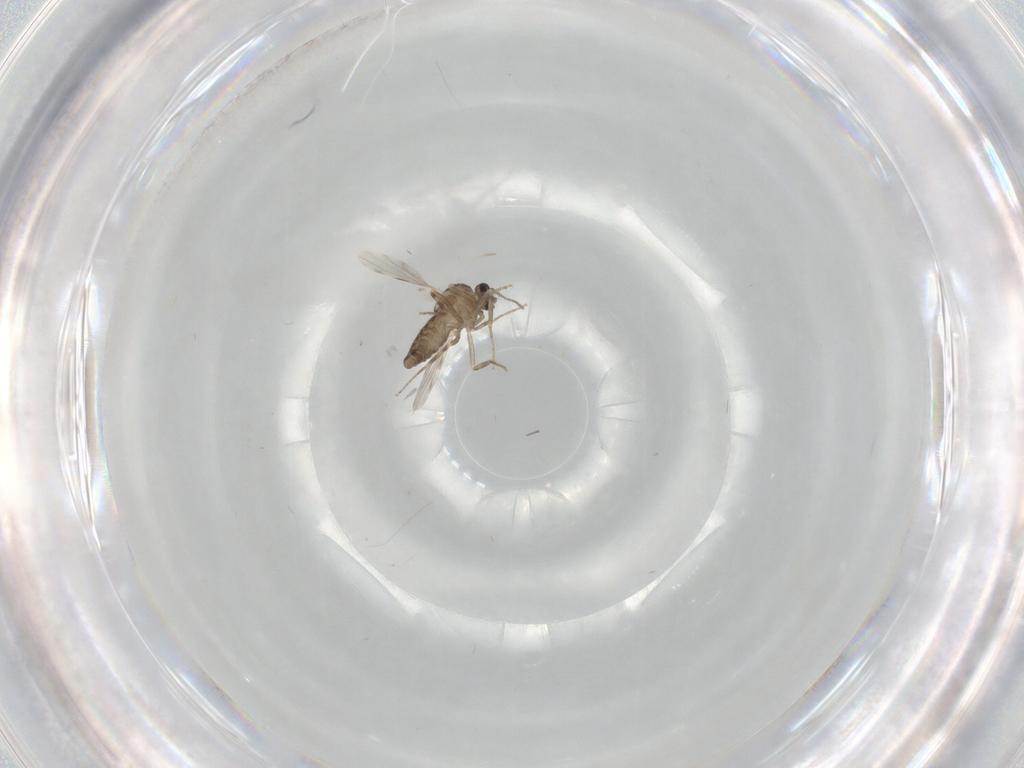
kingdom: Animalia
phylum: Arthropoda
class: Insecta
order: Diptera
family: Ceratopogonidae
